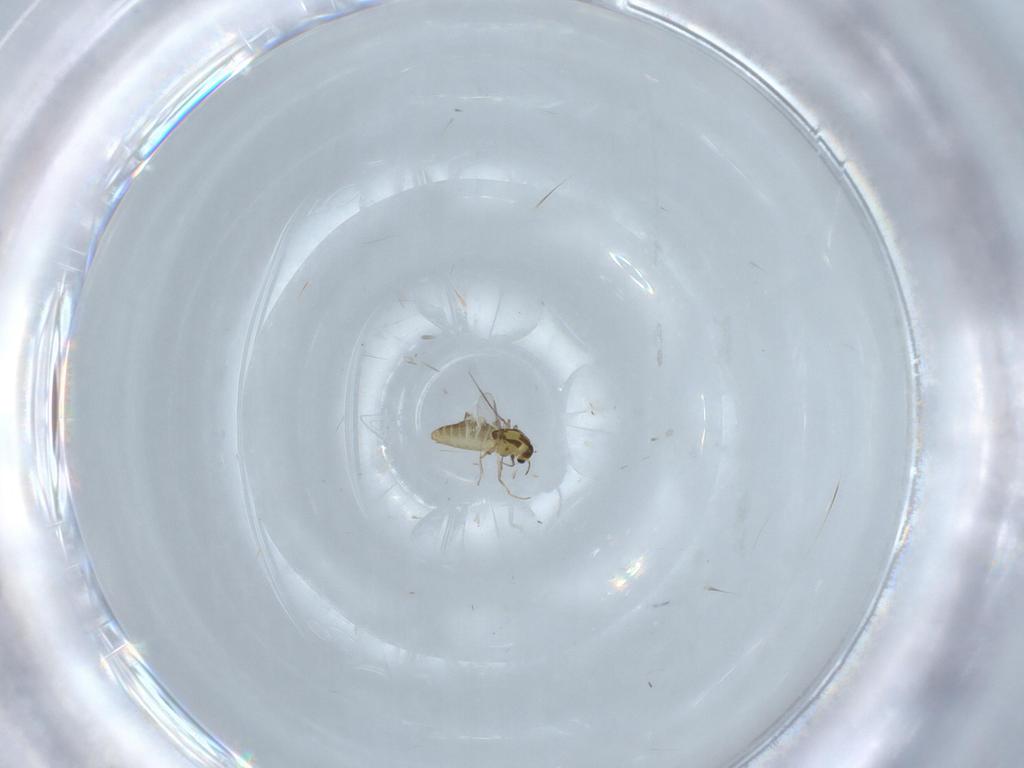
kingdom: Animalia
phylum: Arthropoda
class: Insecta
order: Diptera
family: Chironomidae
